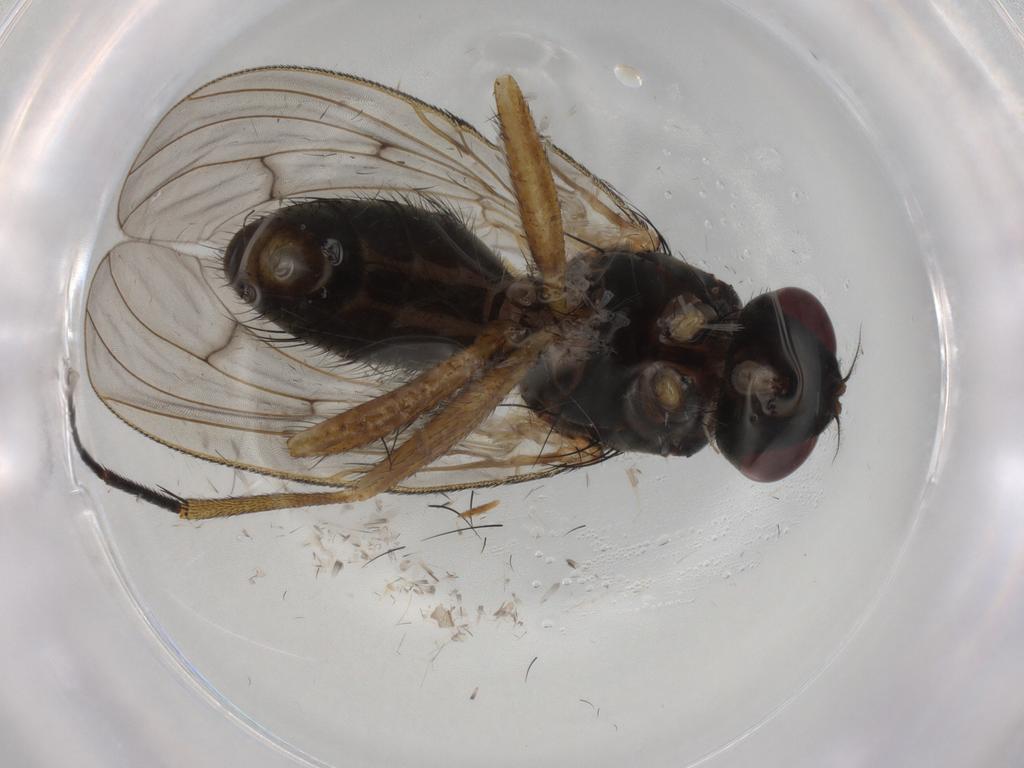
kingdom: Animalia
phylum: Arthropoda
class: Insecta
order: Diptera
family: Muscidae
